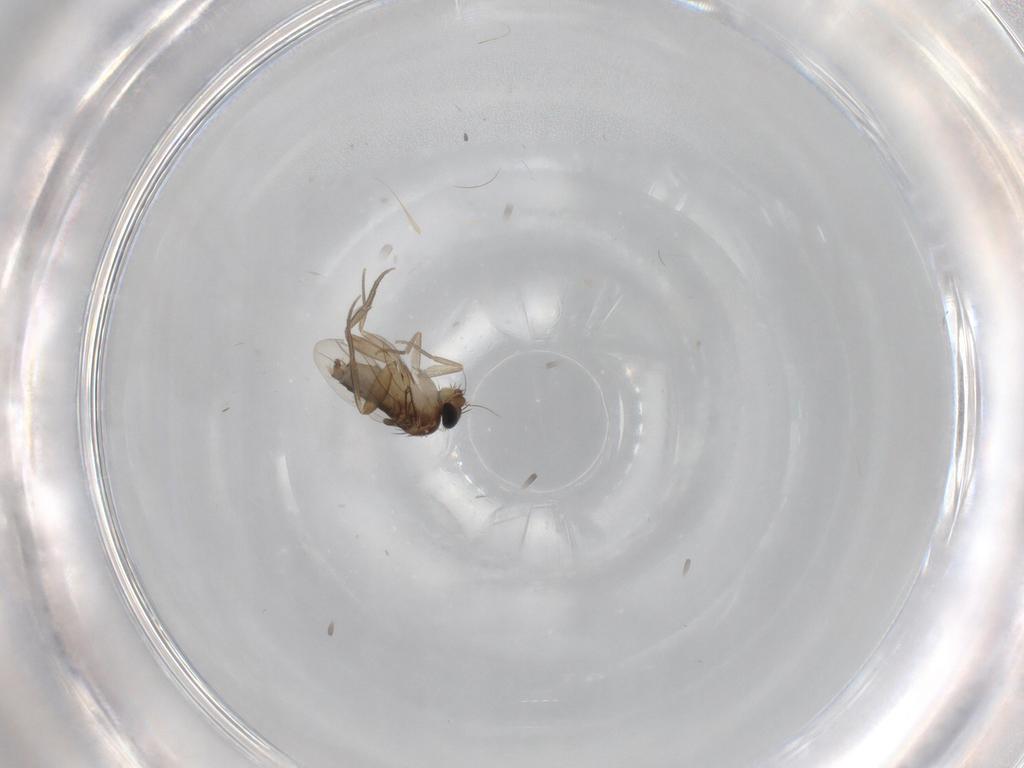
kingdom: Animalia
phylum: Arthropoda
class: Insecta
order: Diptera
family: Phoridae
